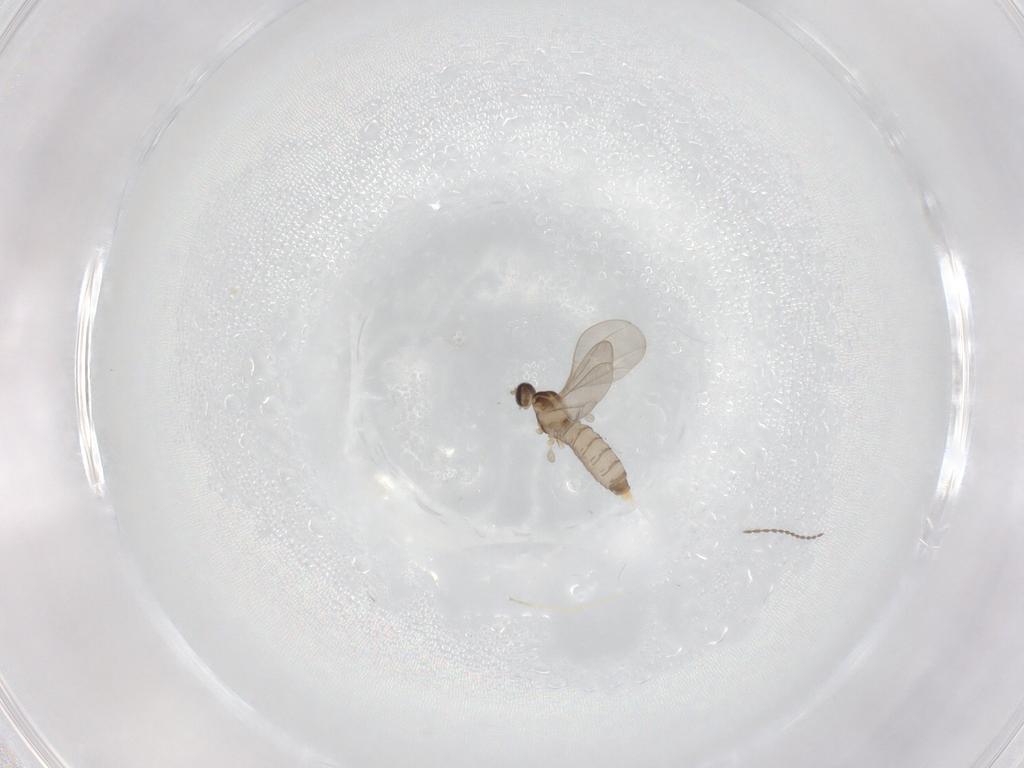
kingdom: Animalia
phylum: Arthropoda
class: Insecta
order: Diptera
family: Cecidomyiidae
